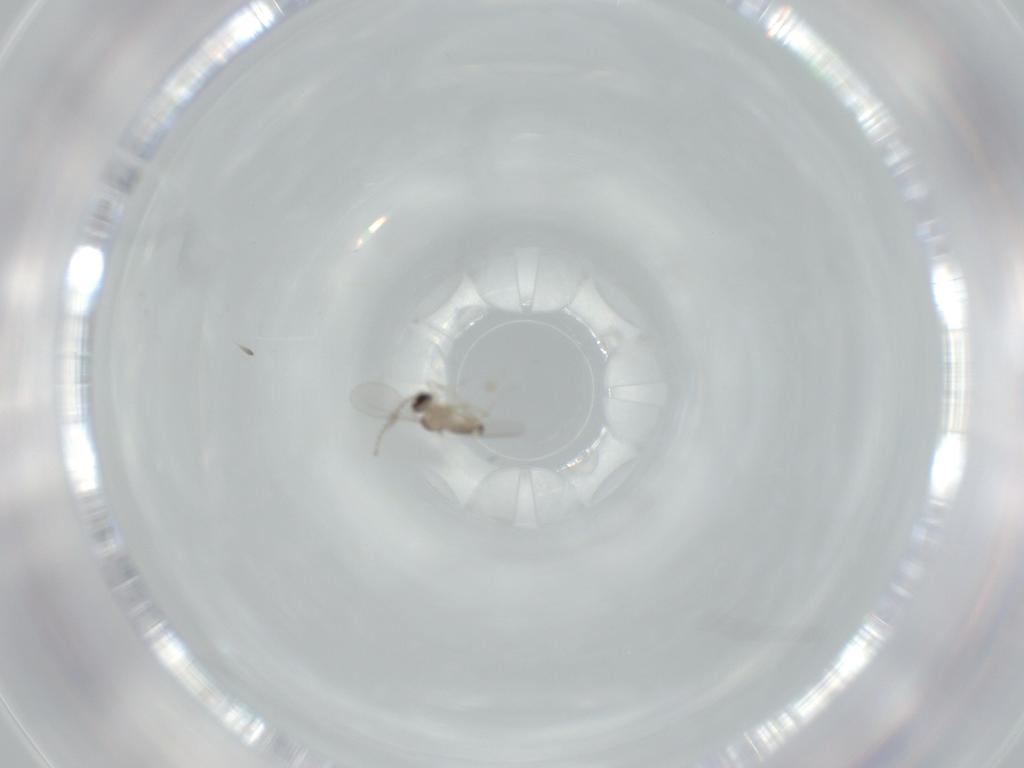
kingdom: Animalia
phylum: Arthropoda
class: Insecta
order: Diptera
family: Cecidomyiidae
